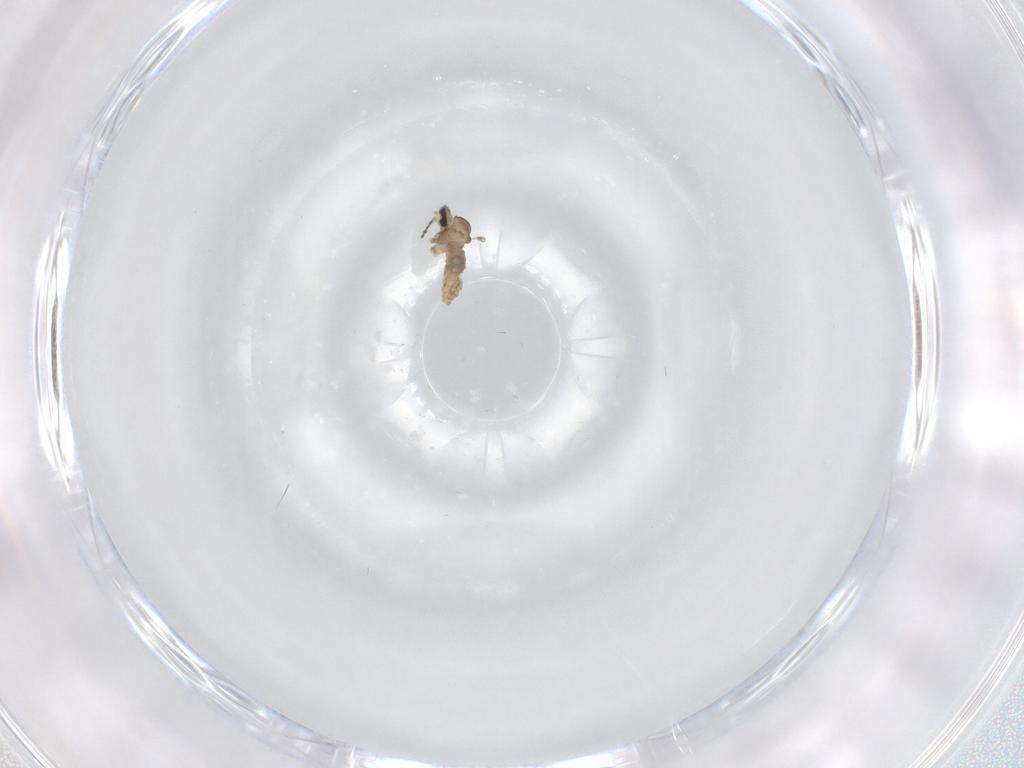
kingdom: Animalia
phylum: Arthropoda
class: Insecta
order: Diptera
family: Cecidomyiidae
